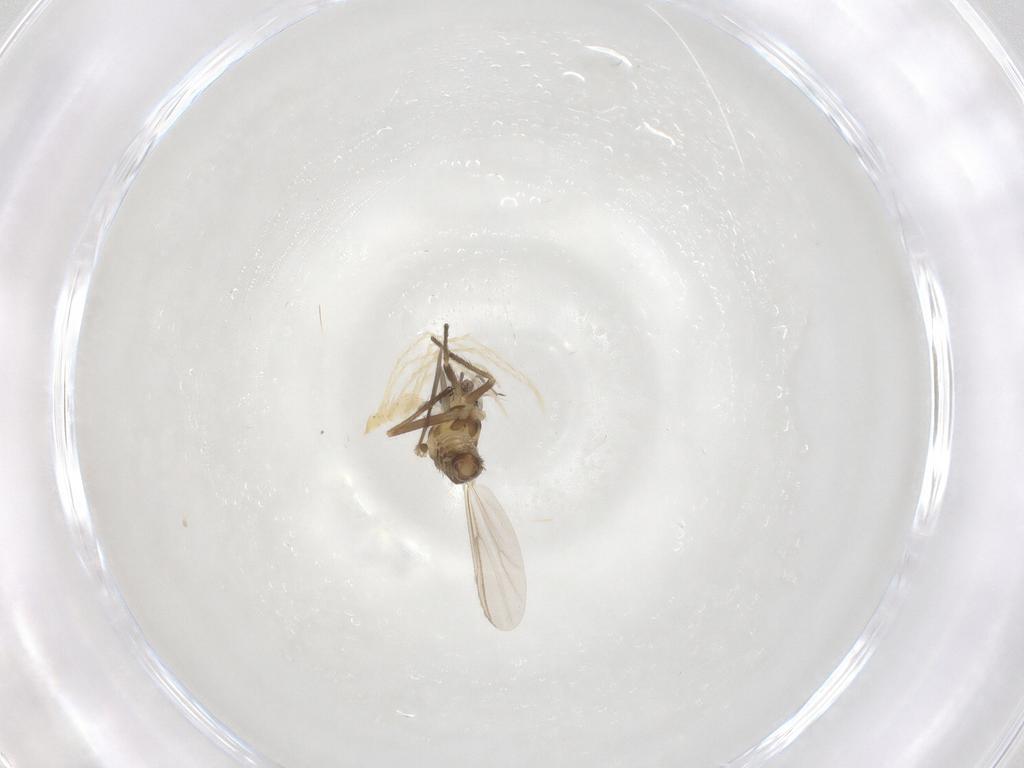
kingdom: Animalia
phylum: Arthropoda
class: Insecta
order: Diptera
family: Chironomidae
